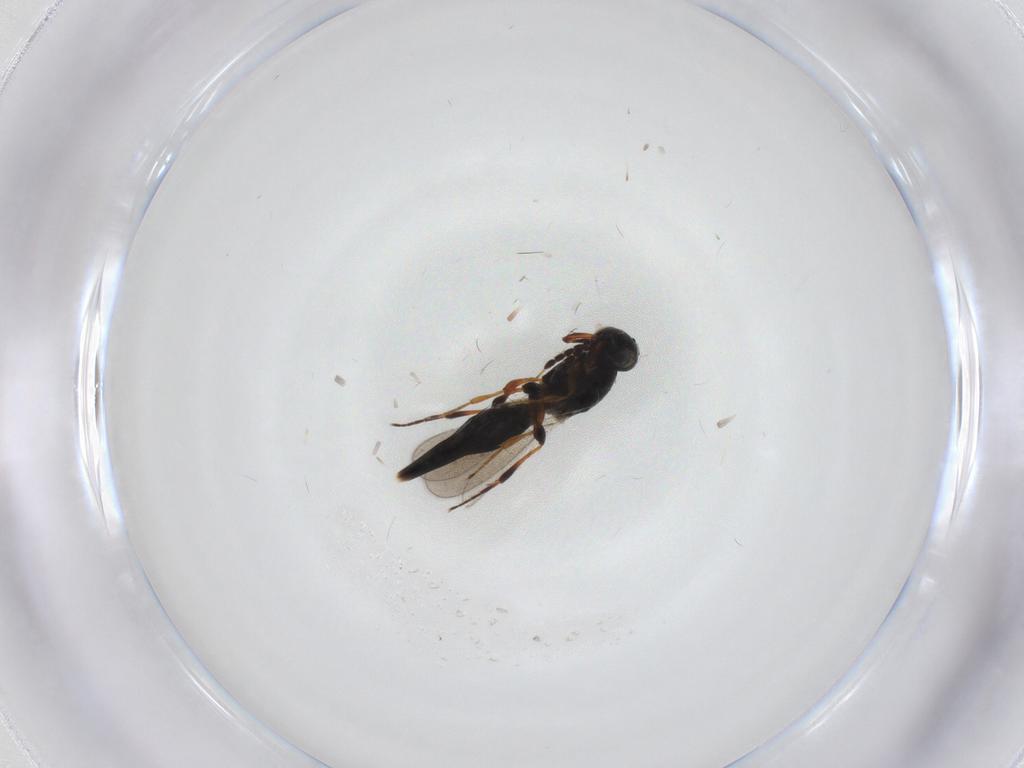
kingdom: Animalia
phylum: Arthropoda
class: Insecta
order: Hymenoptera
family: Platygastridae
